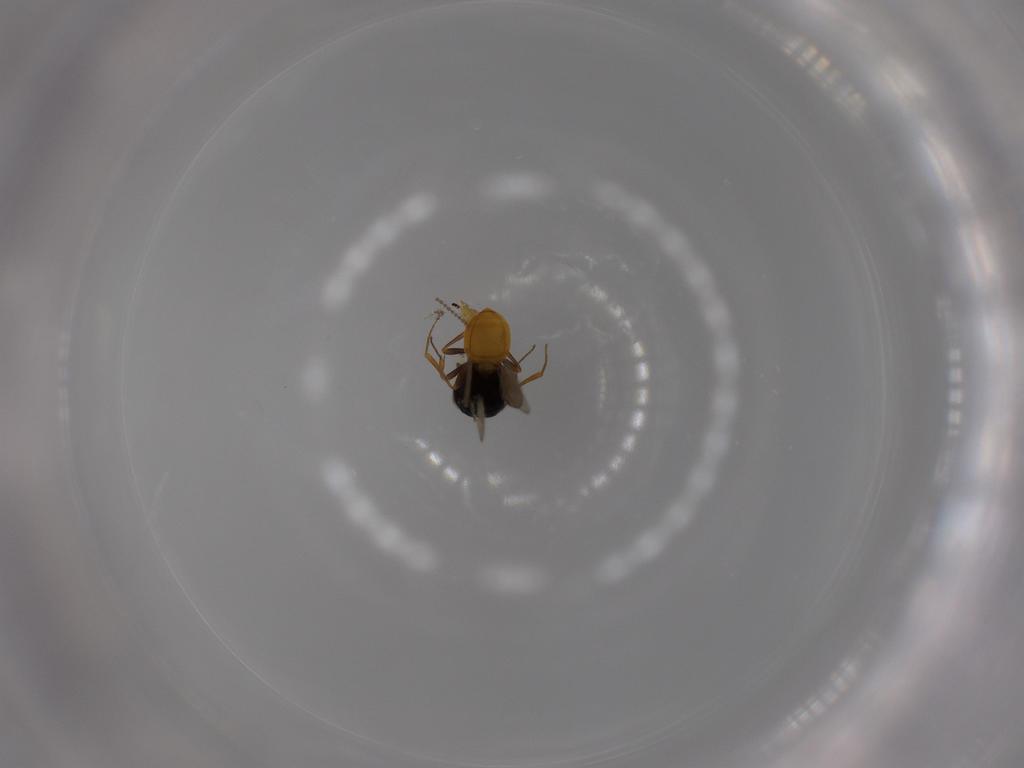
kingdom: Animalia
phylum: Arthropoda
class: Insecta
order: Hymenoptera
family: Scelionidae
